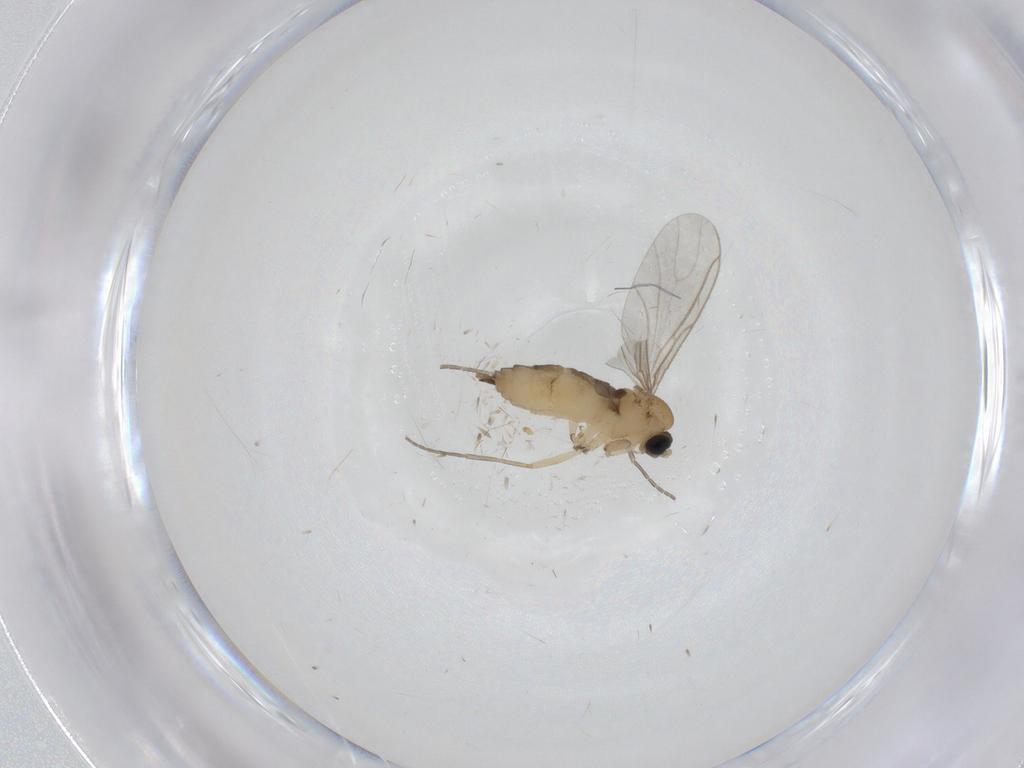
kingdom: Animalia
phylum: Arthropoda
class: Insecta
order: Diptera
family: Sciaridae
